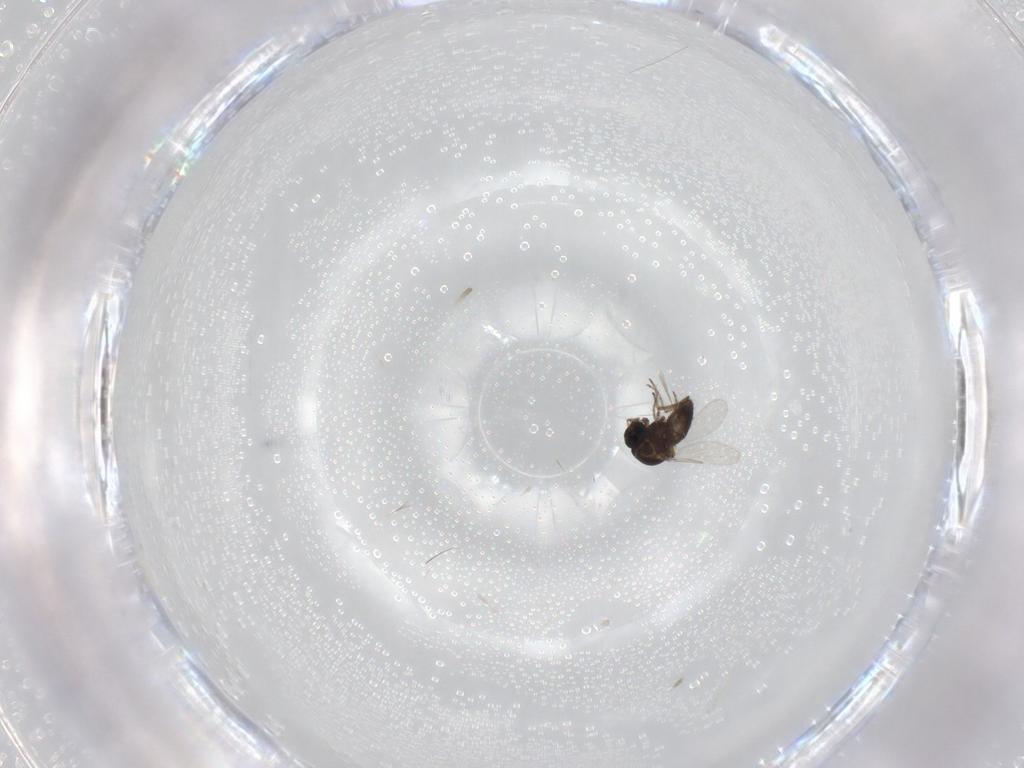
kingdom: Animalia
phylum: Arthropoda
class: Insecta
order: Diptera
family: Ceratopogonidae
